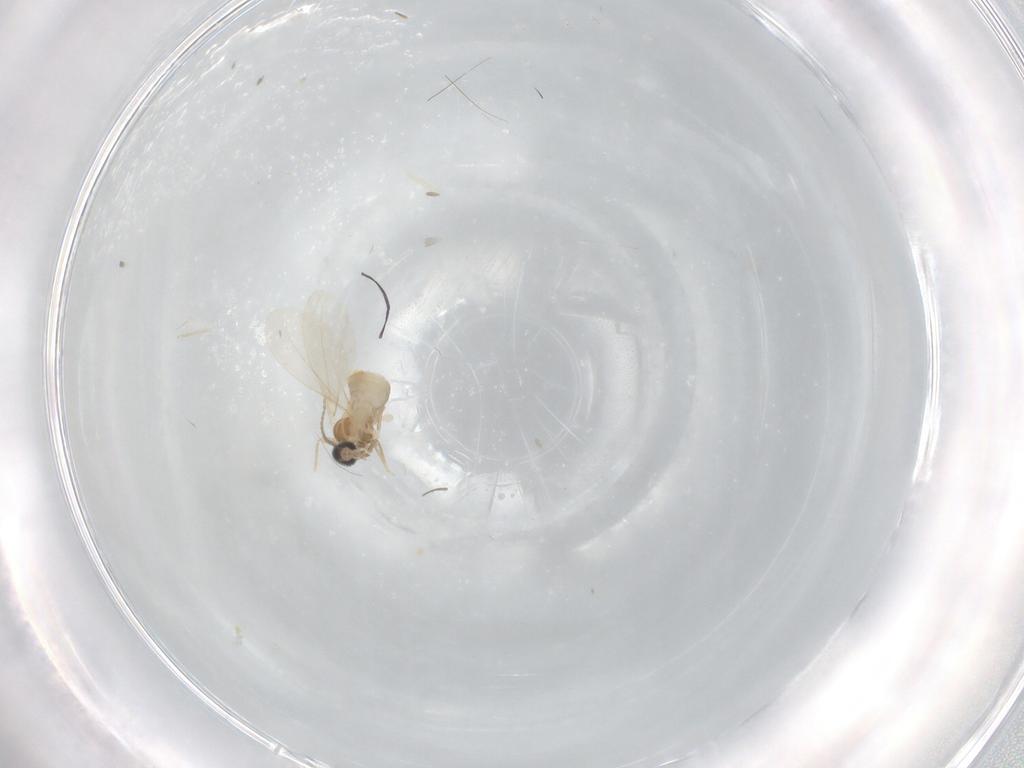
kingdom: Animalia
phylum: Arthropoda
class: Insecta
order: Diptera
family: Cecidomyiidae
